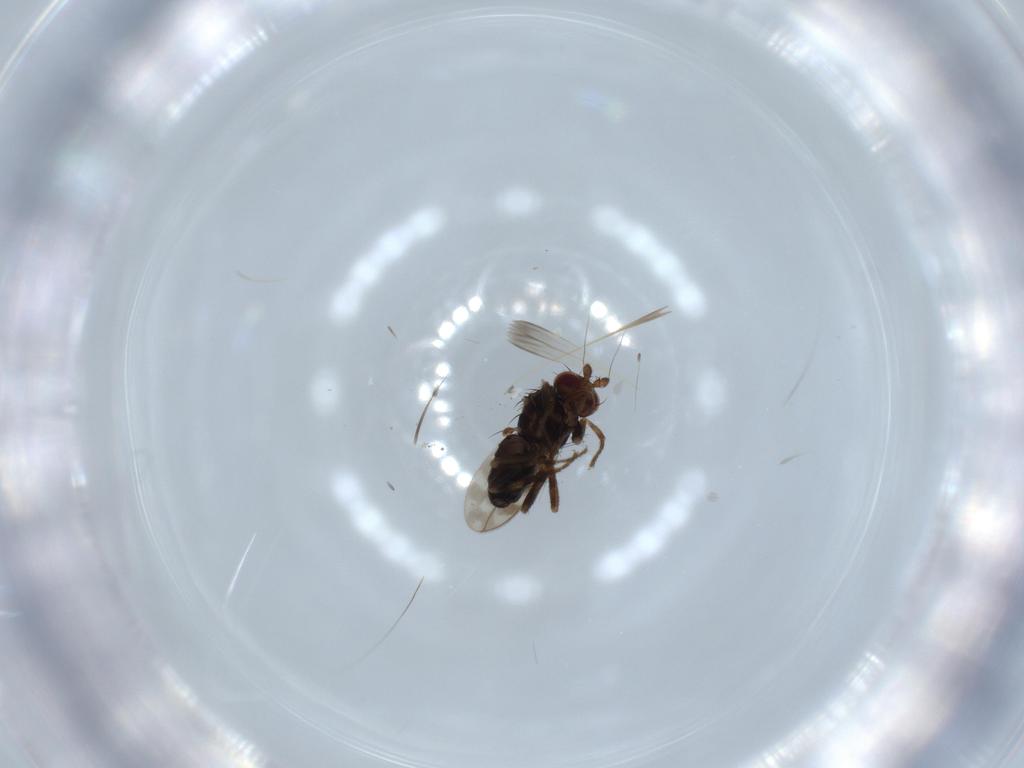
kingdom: Animalia
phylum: Arthropoda
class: Insecta
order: Diptera
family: Sphaeroceridae
